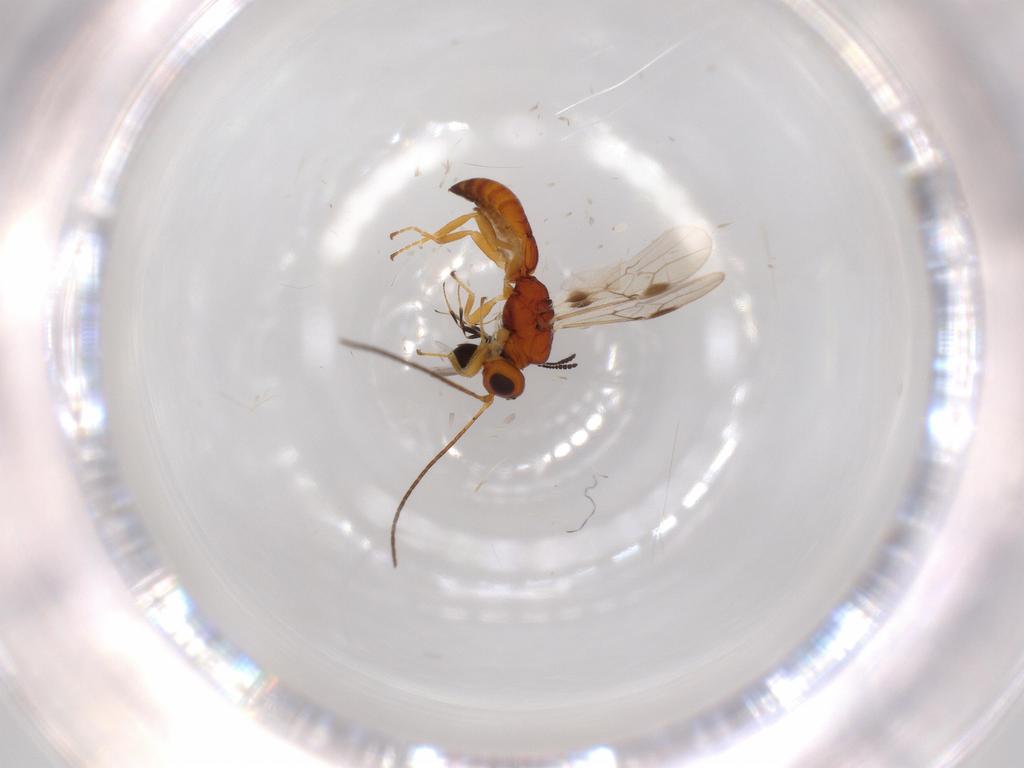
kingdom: Animalia
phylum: Arthropoda
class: Insecta
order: Hymenoptera
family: Scelionidae
